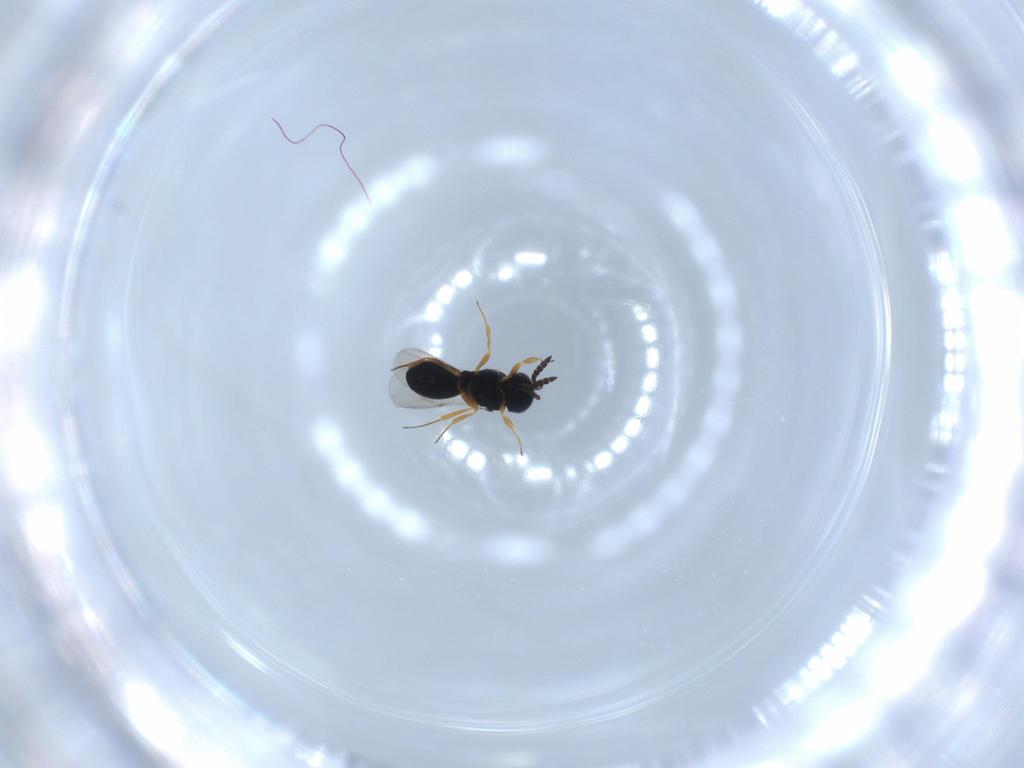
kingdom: Animalia
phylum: Arthropoda
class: Insecta
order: Hymenoptera
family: Scelionidae
